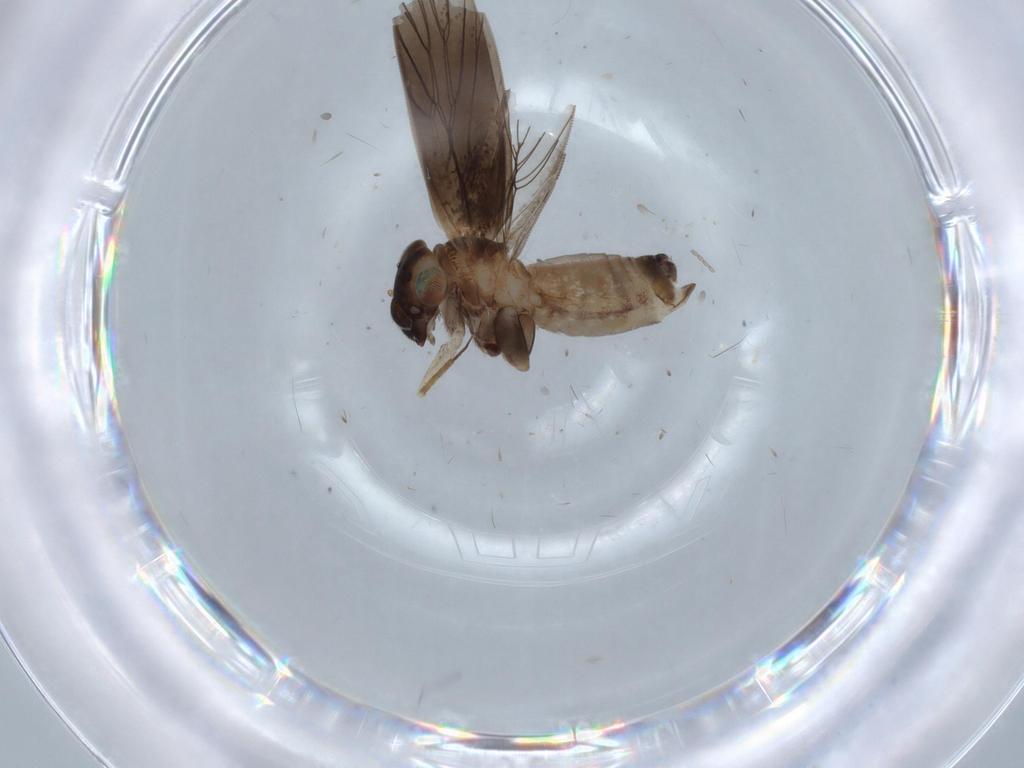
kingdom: Animalia
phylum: Arthropoda
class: Insecta
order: Psocodea
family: Lepidopsocidae
